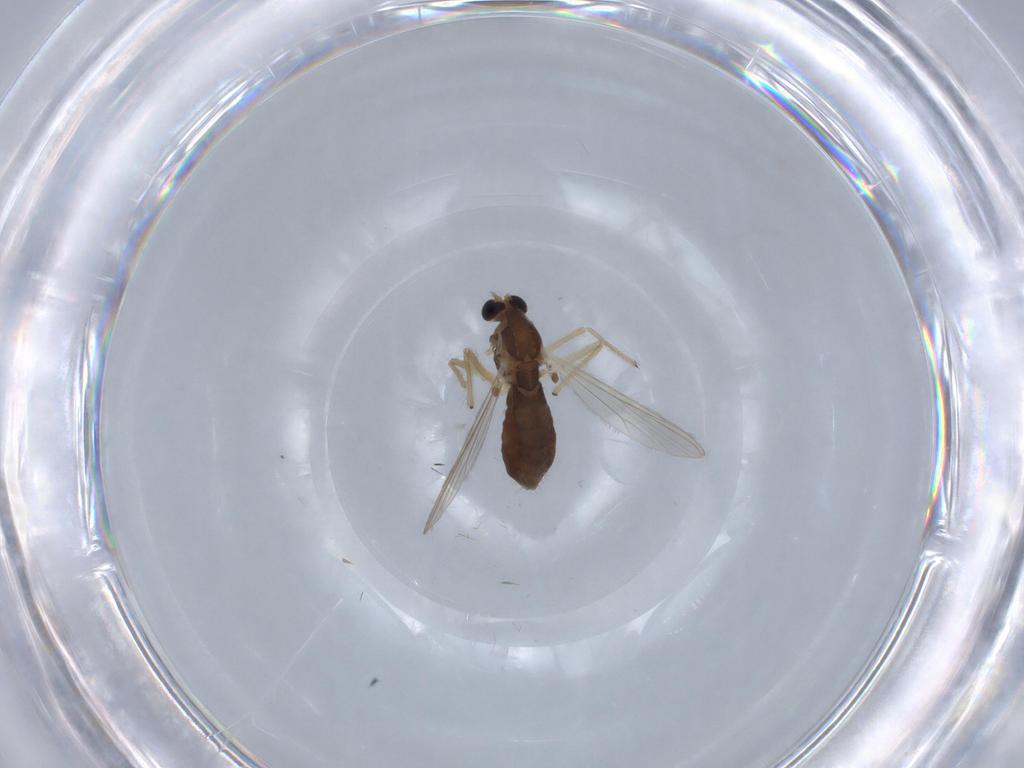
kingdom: Animalia
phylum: Arthropoda
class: Insecta
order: Diptera
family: Chironomidae
